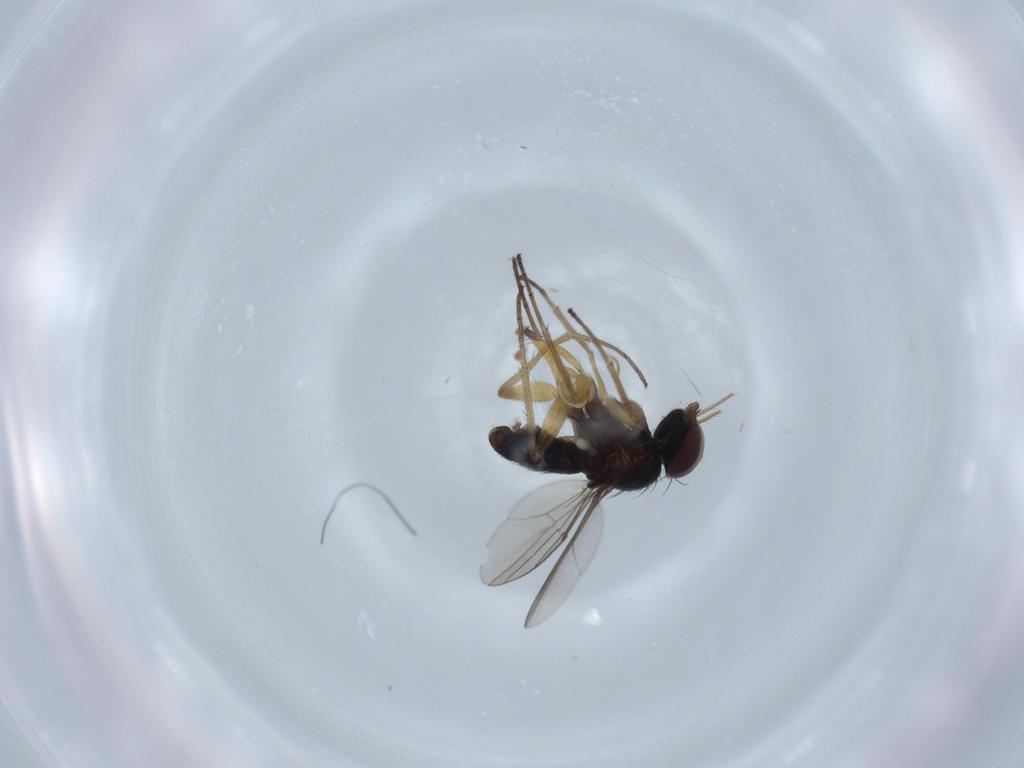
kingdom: Animalia
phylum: Arthropoda
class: Insecta
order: Diptera
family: Dolichopodidae
